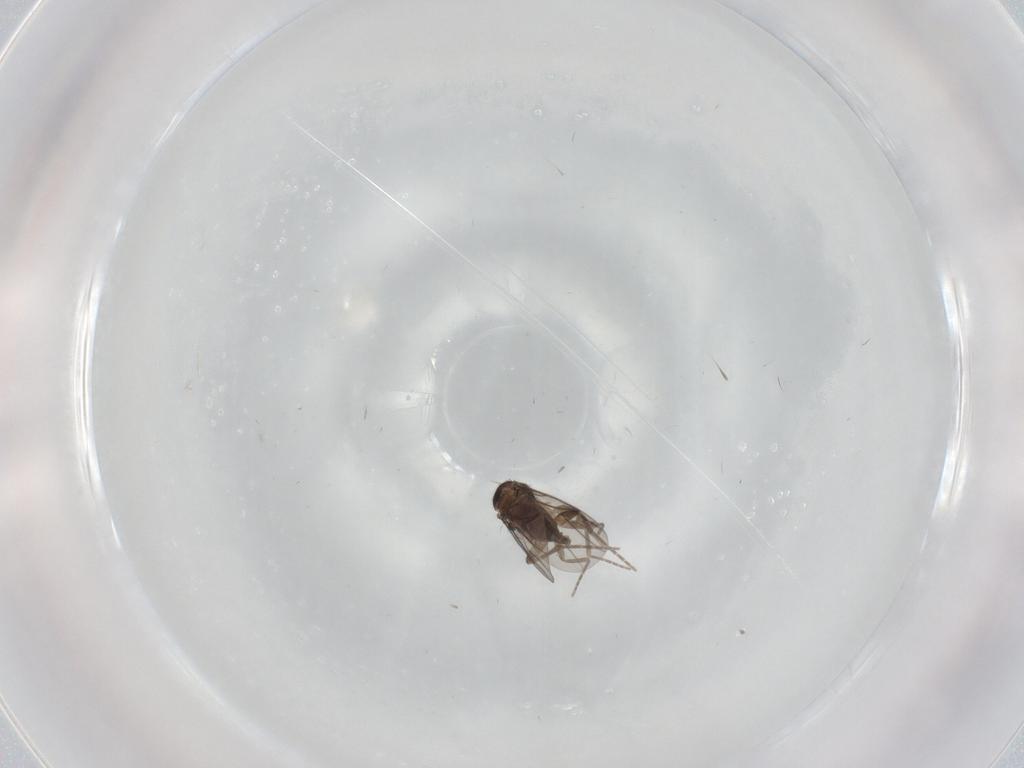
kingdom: Animalia
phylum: Arthropoda
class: Insecta
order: Diptera
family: Phoridae
